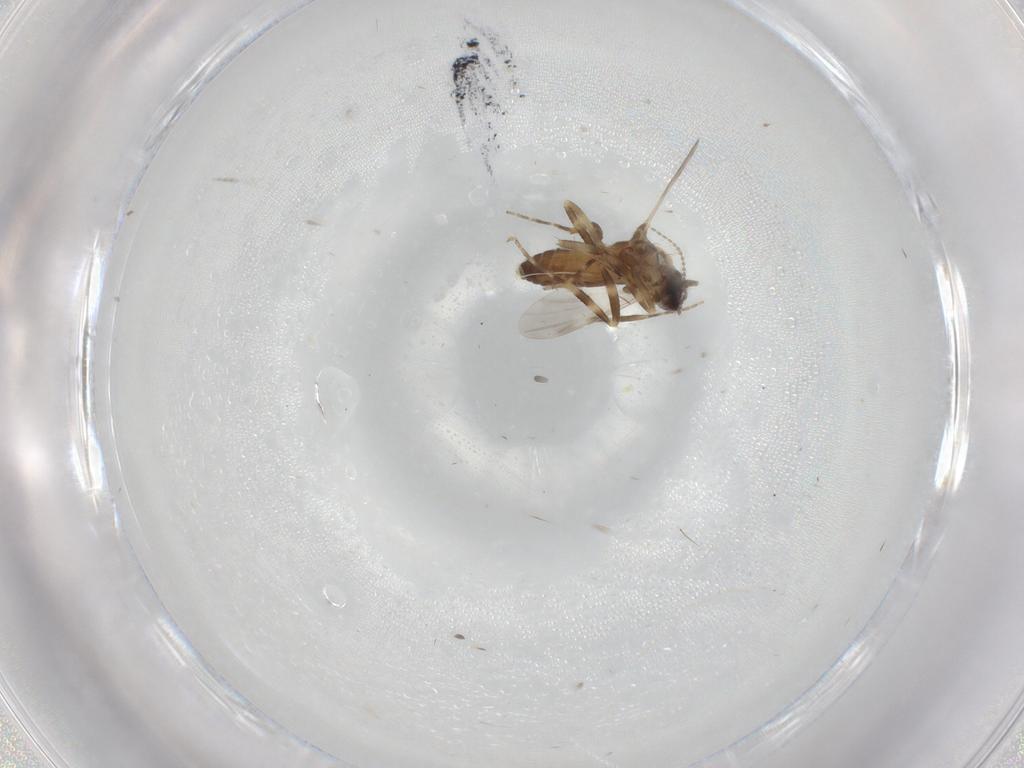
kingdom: Animalia
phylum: Arthropoda
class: Insecta
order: Diptera
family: Ceratopogonidae
